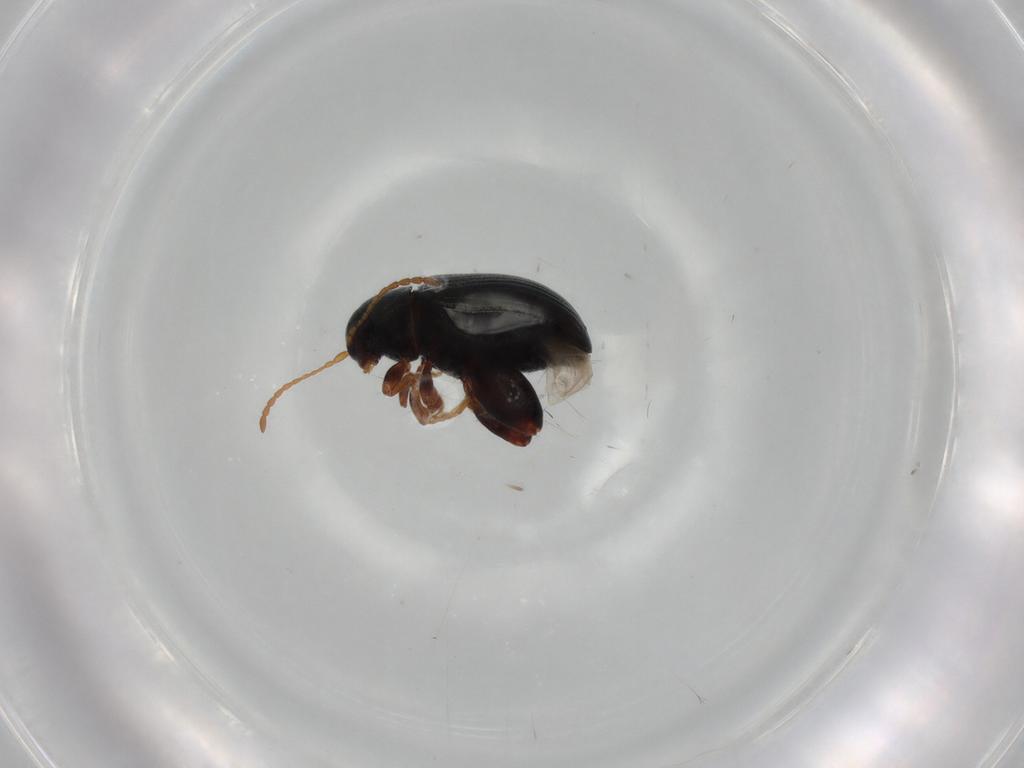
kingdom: Animalia
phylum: Arthropoda
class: Insecta
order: Coleoptera
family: Chrysomelidae
